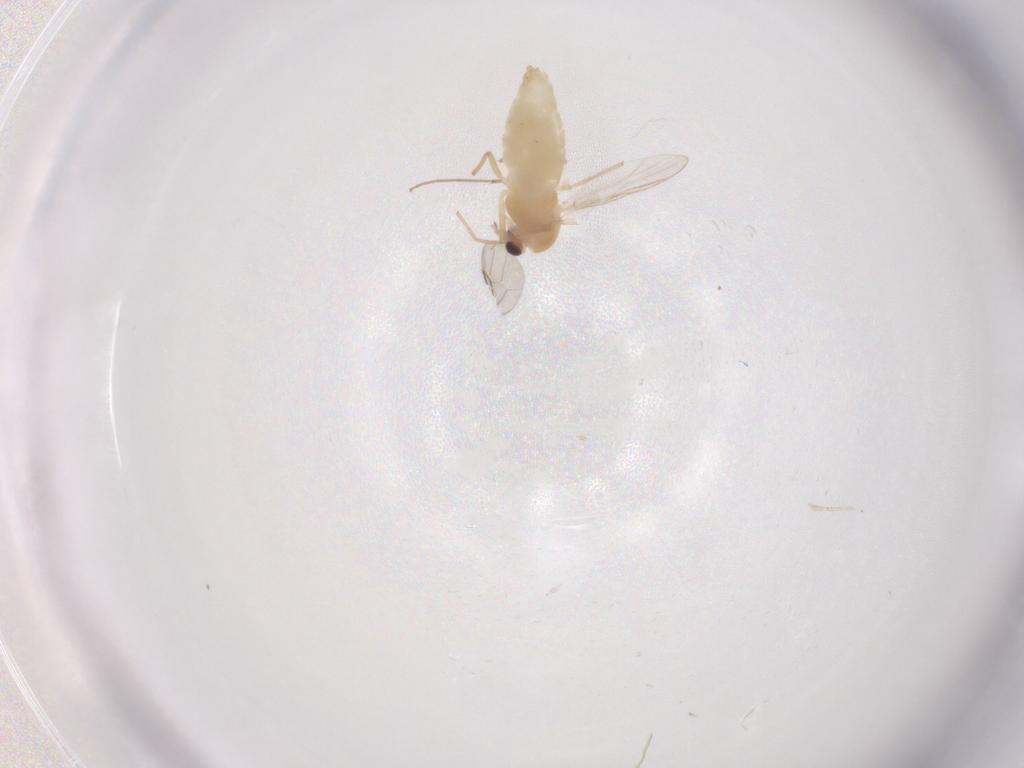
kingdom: Animalia
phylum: Arthropoda
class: Insecta
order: Diptera
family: Chironomidae
